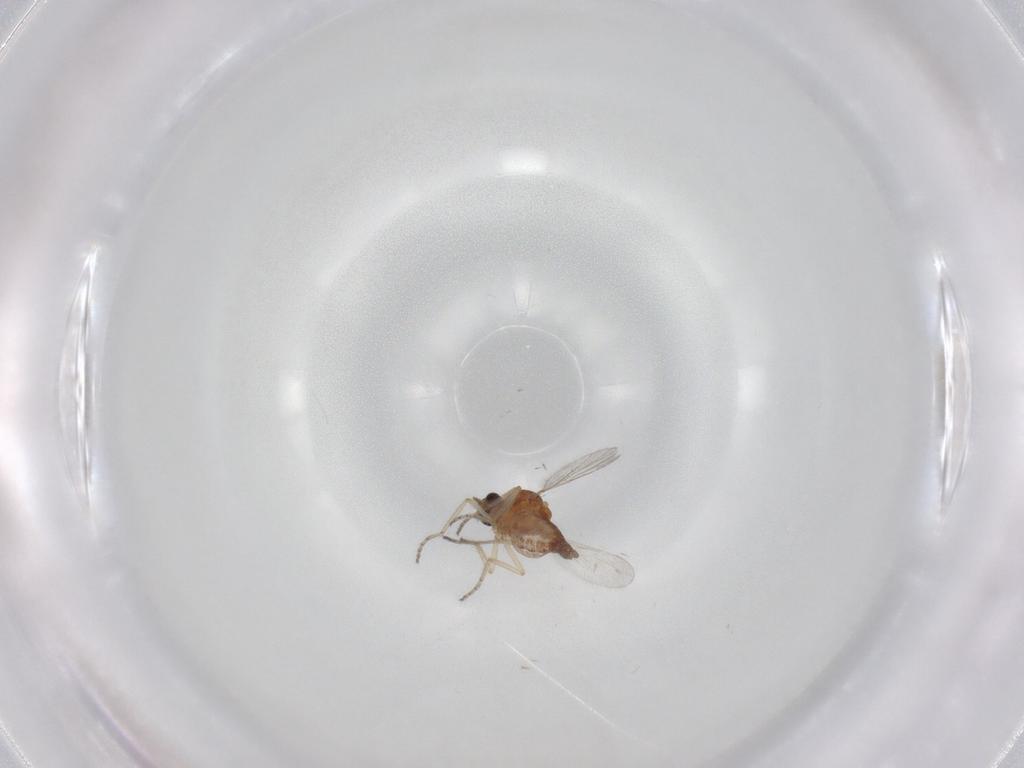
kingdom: Animalia
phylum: Arthropoda
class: Insecta
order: Diptera
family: Ceratopogonidae
